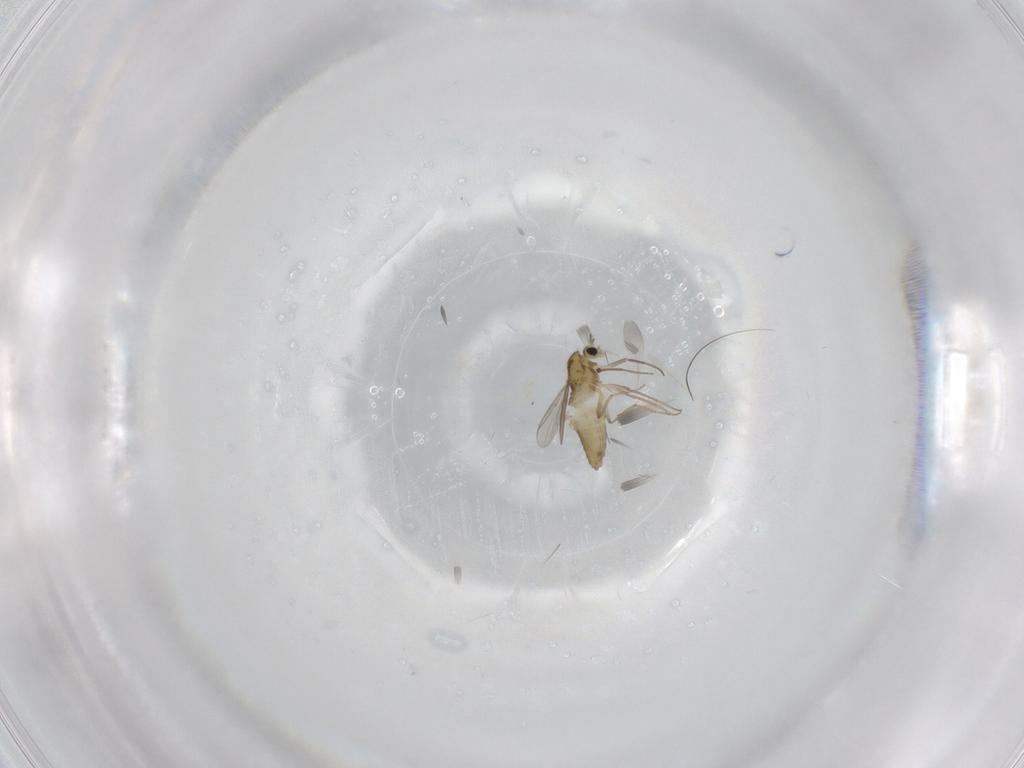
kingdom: Animalia
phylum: Arthropoda
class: Insecta
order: Diptera
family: Chironomidae
